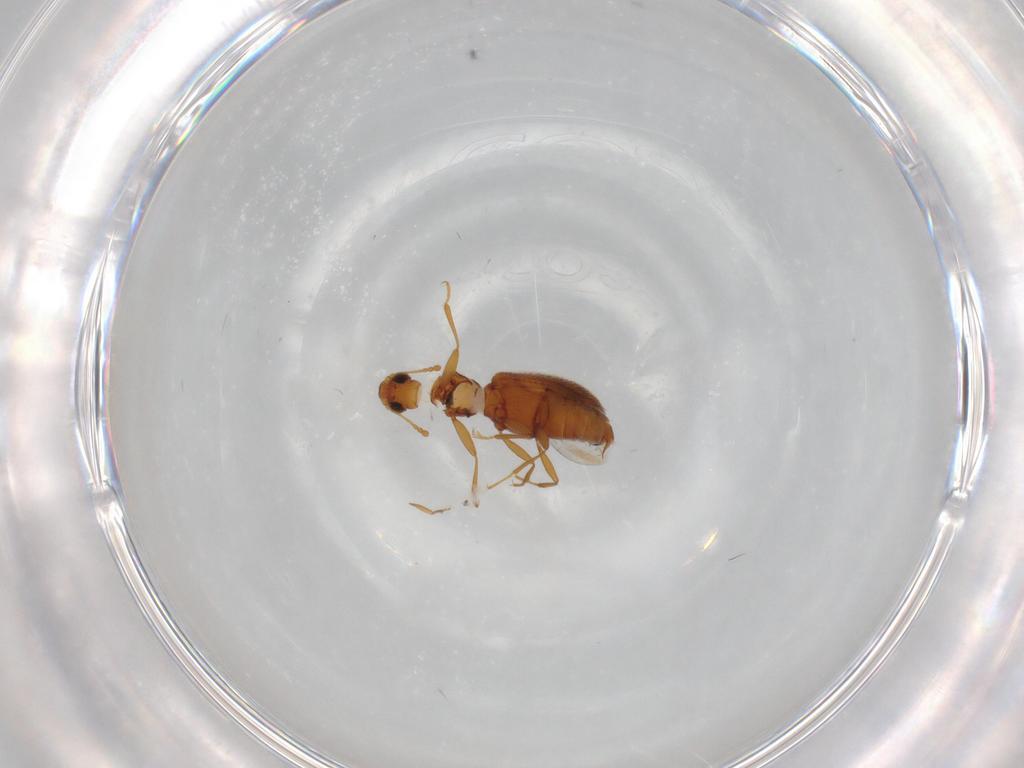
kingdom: Animalia
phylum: Arthropoda
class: Insecta
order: Coleoptera
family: Latridiidae
